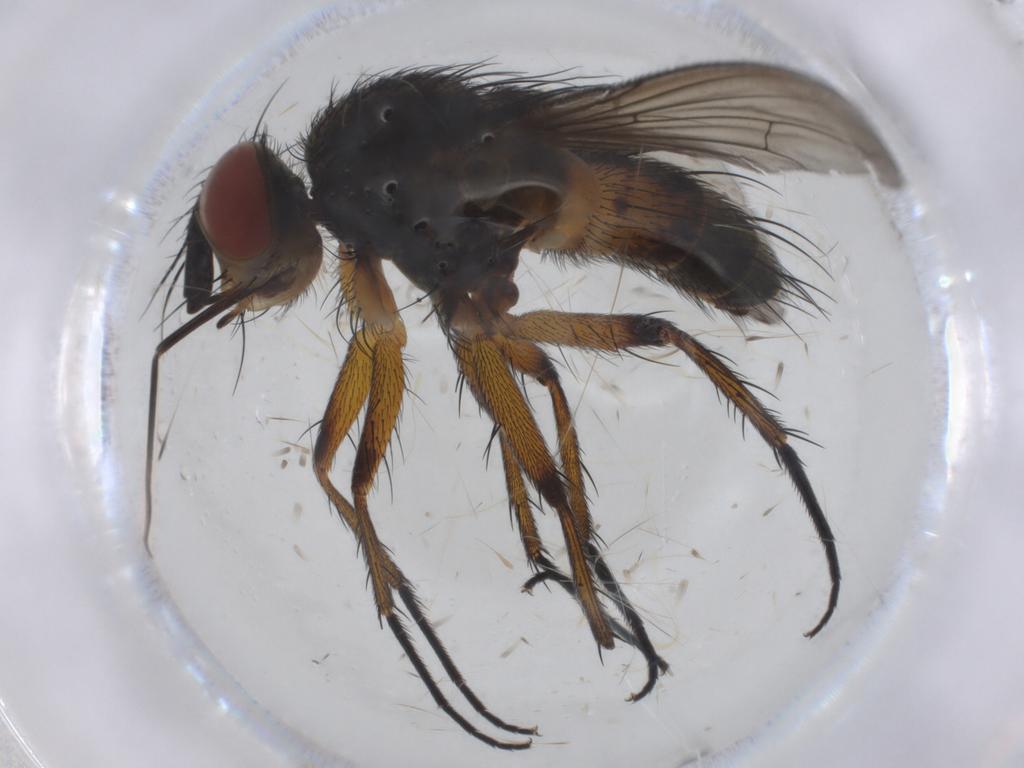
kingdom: Animalia
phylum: Arthropoda
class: Insecta
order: Diptera
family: Tachinidae
